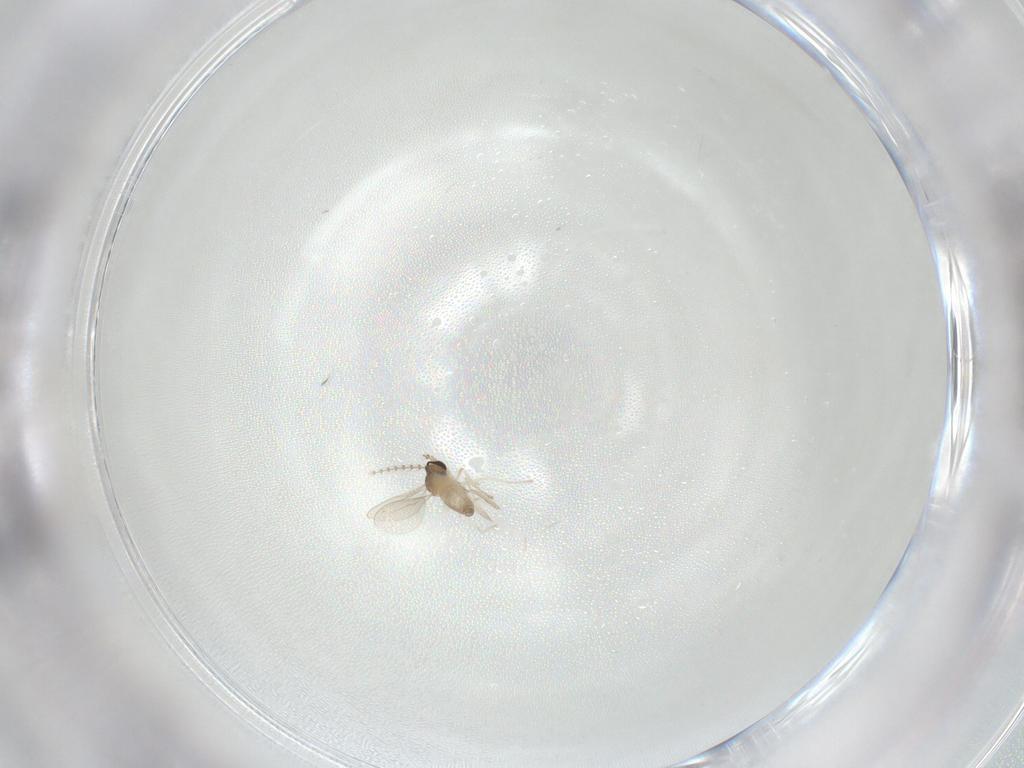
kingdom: Animalia
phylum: Arthropoda
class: Insecta
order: Diptera
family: Cecidomyiidae
